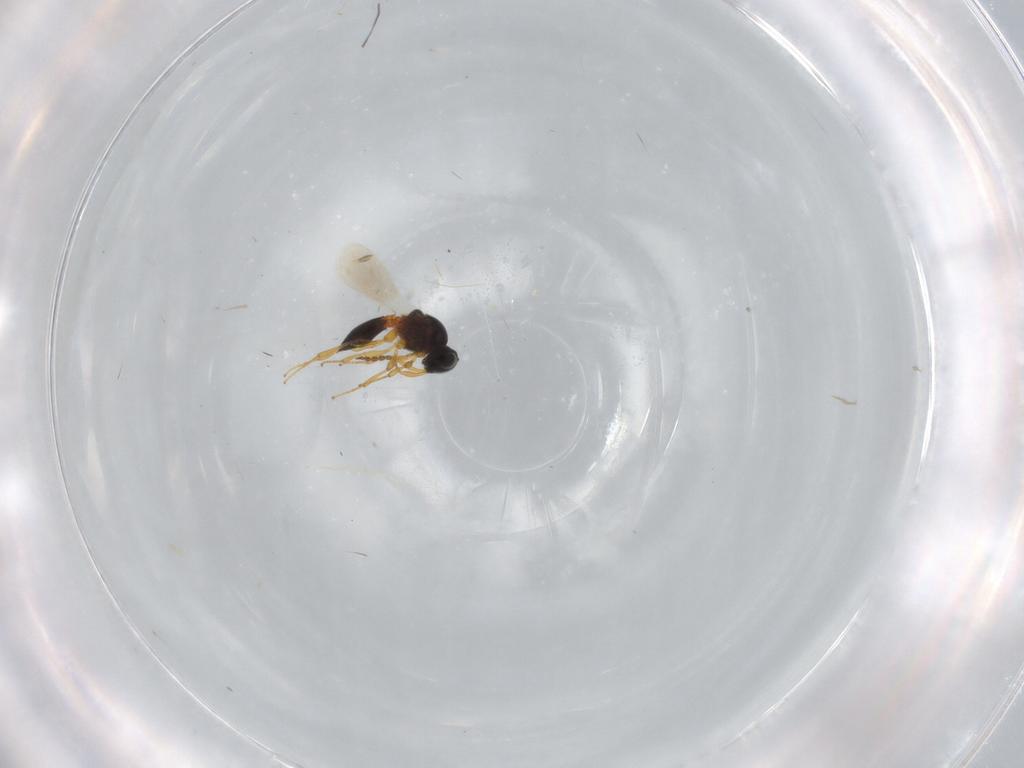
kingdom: Animalia
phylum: Arthropoda
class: Insecta
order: Hymenoptera
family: Platygastridae
